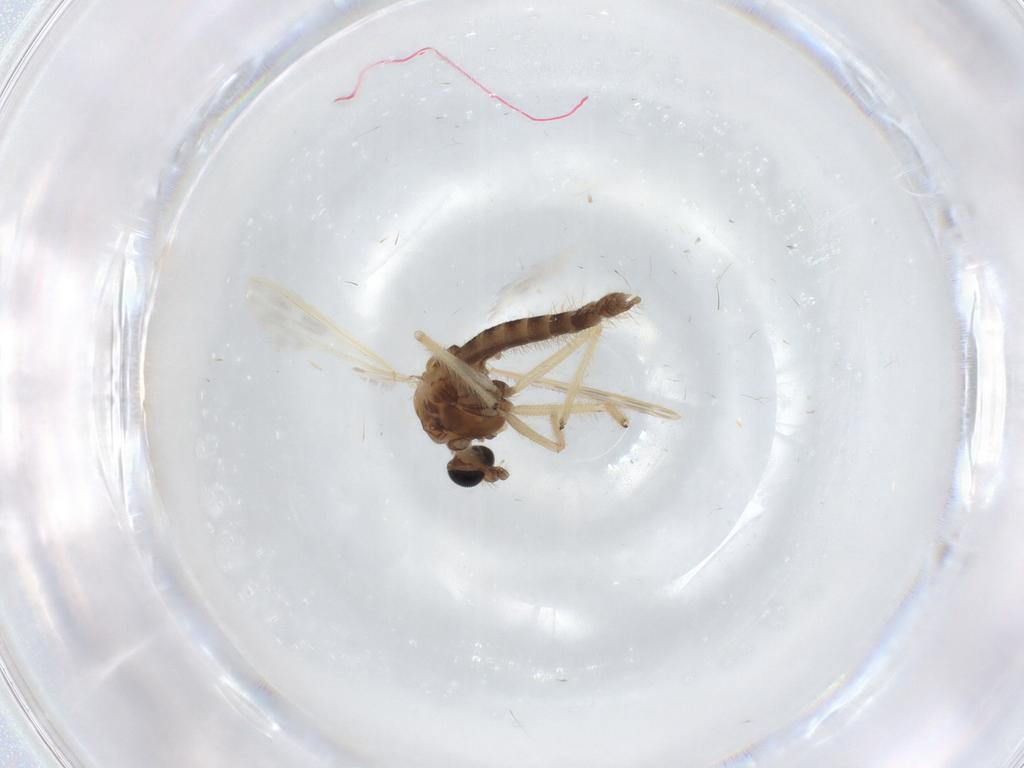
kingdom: Animalia
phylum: Arthropoda
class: Insecta
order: Diptera
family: Chironomidae
